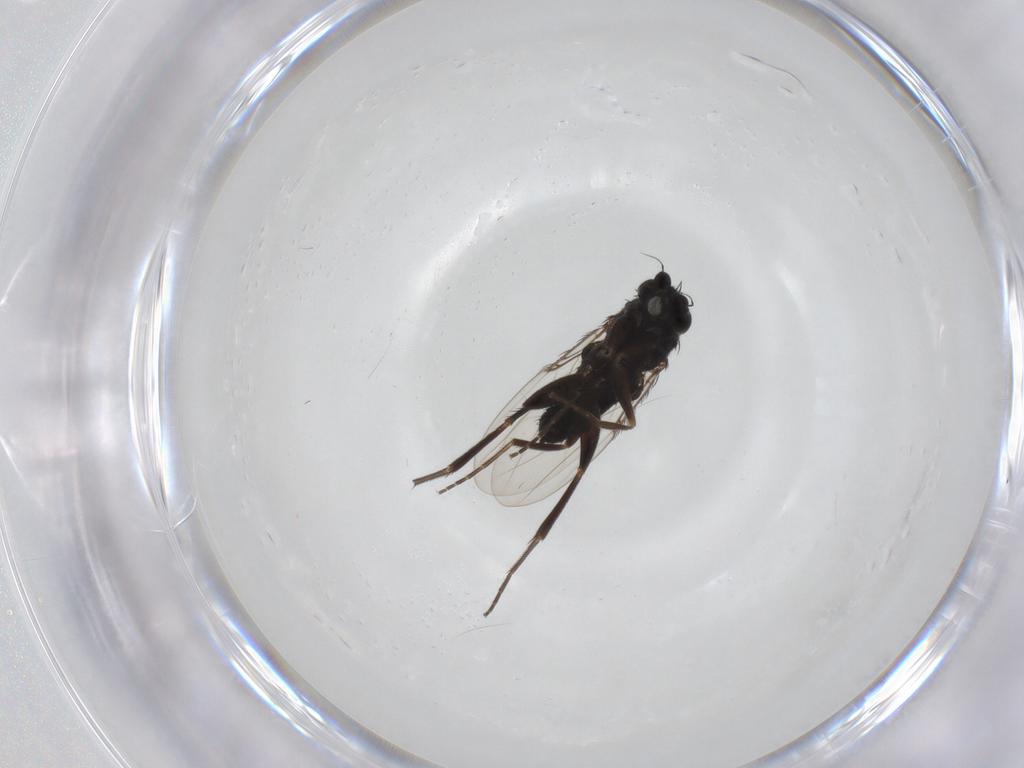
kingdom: Animalia
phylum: Arthropoda
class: Insecta
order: Diptera
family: Phoridae
